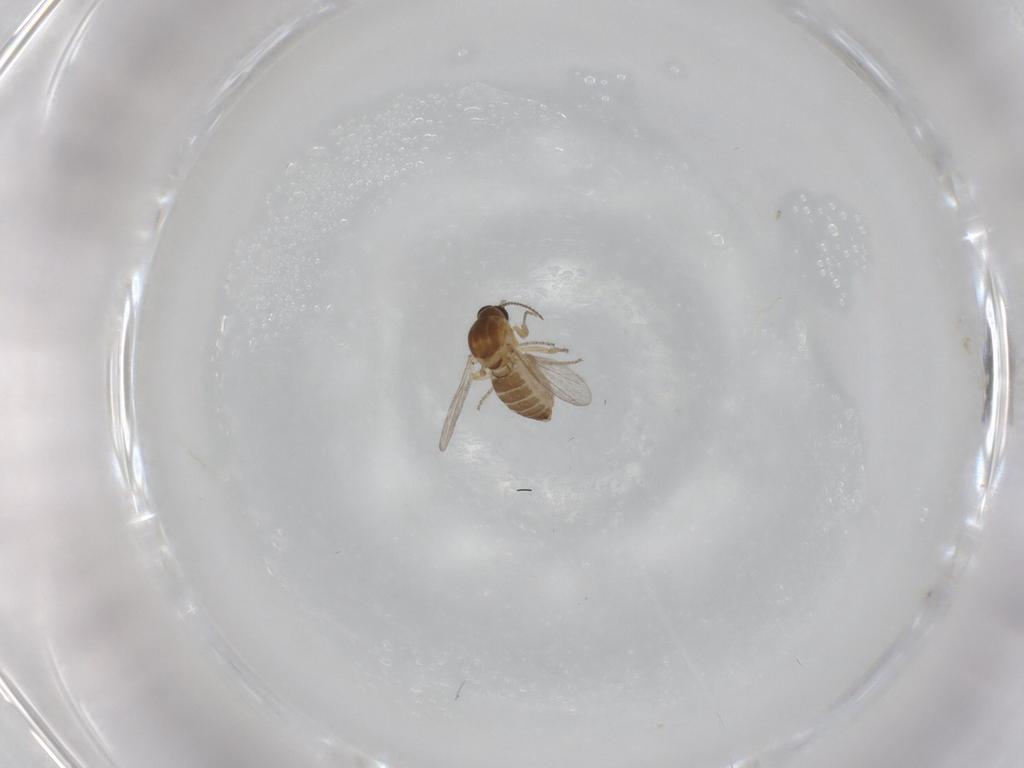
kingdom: Animalia
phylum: Arthropoda
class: Insecta
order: Diptera
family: Ceratopogonidae
